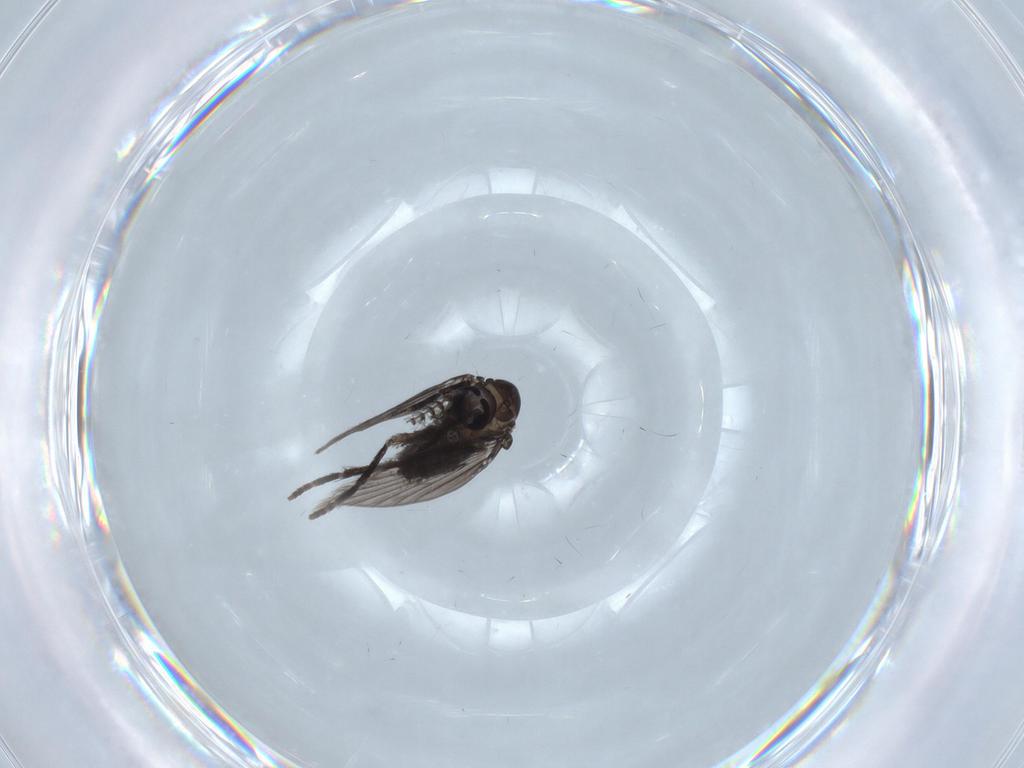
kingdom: Animalia
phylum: Arthropoda
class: Insecta
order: Diptera
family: Psychodidae
